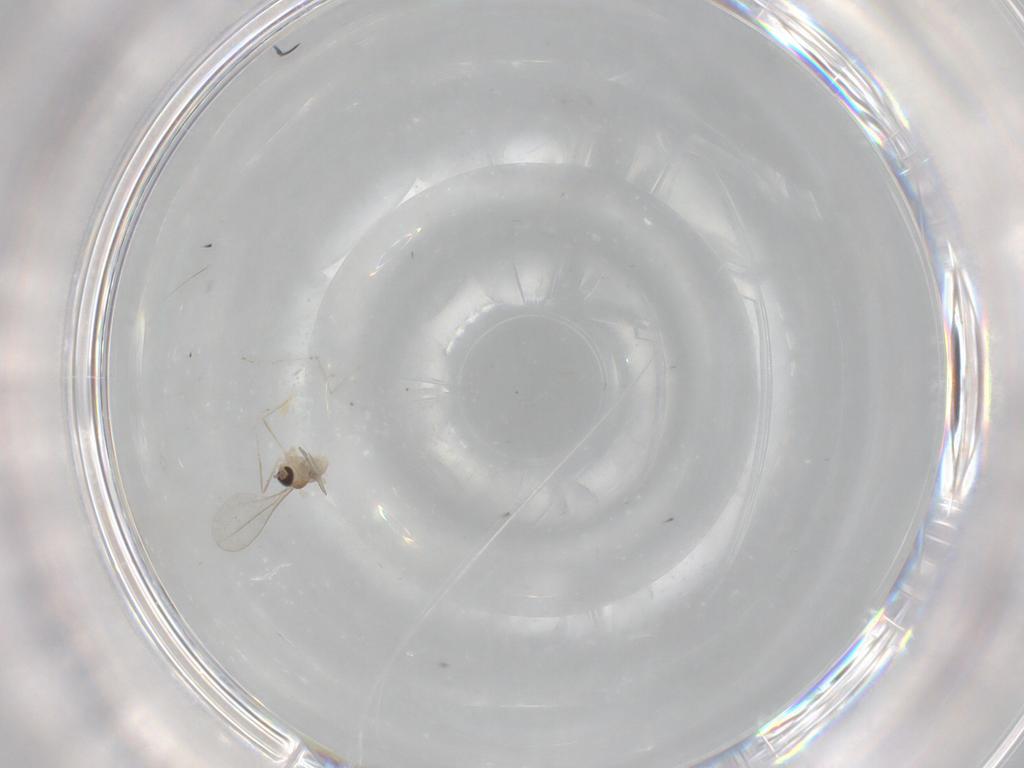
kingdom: Animalia
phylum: Arthropoda
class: Insecta
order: Diptera
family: Cecidomyiidae
